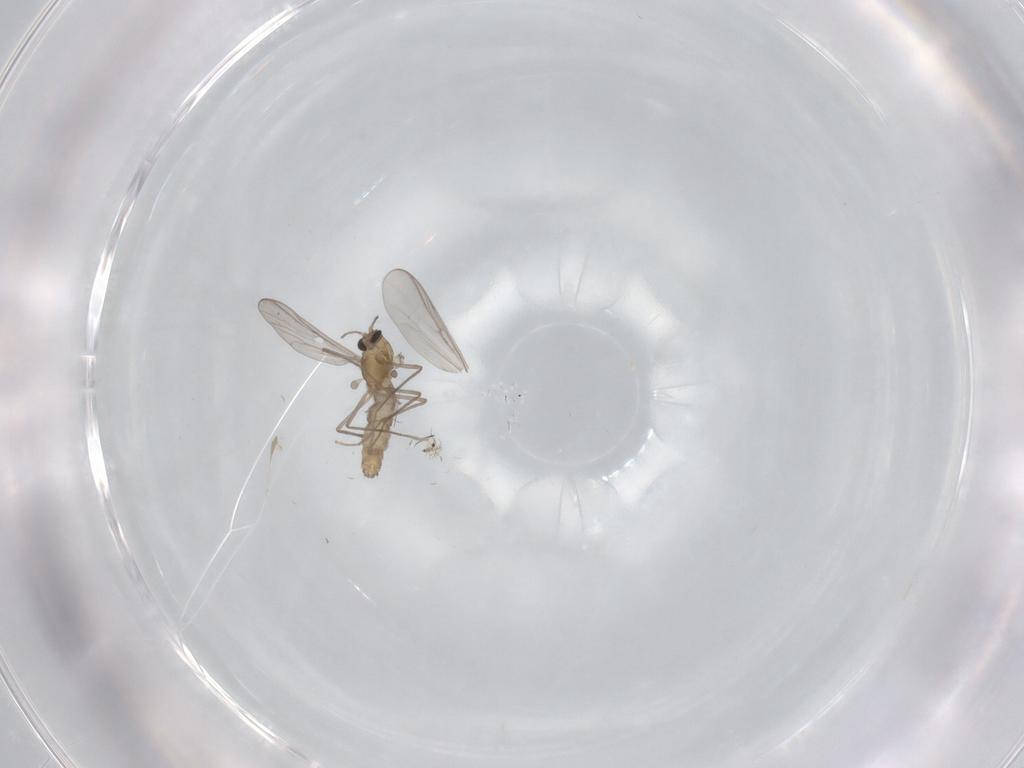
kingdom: Animalia
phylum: Arthropoda
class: Insecta
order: Diptera
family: Chironomidae
